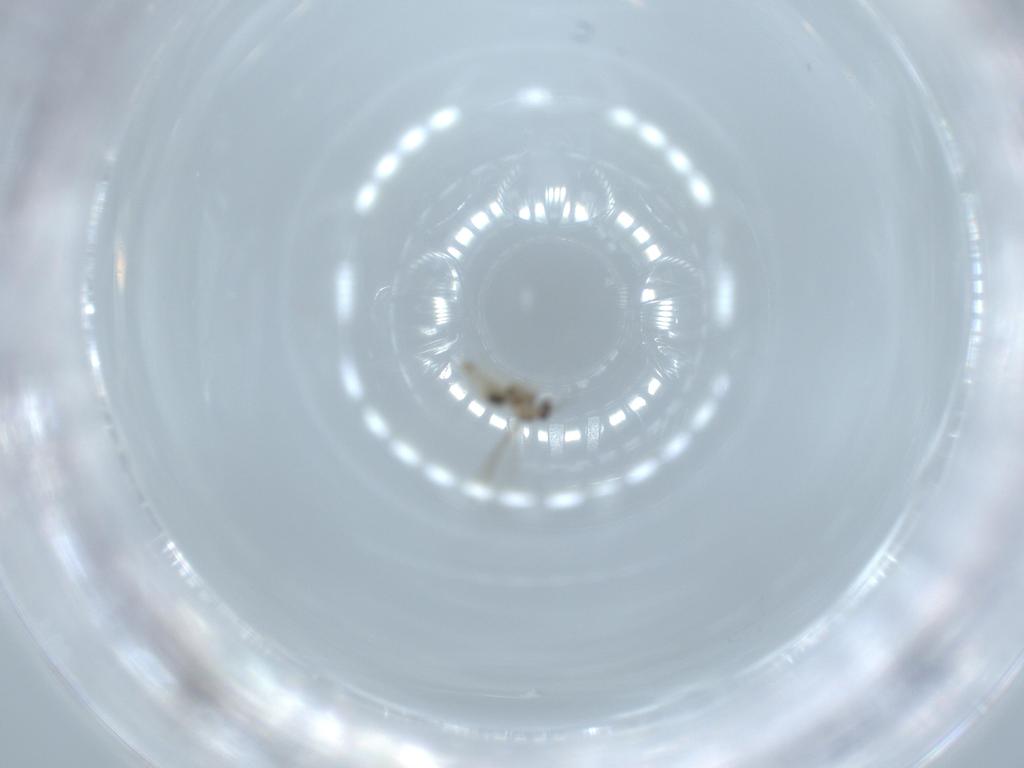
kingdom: Animalia
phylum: Arthropoda
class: Insecta
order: Diptera
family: Cecidomyiidae
